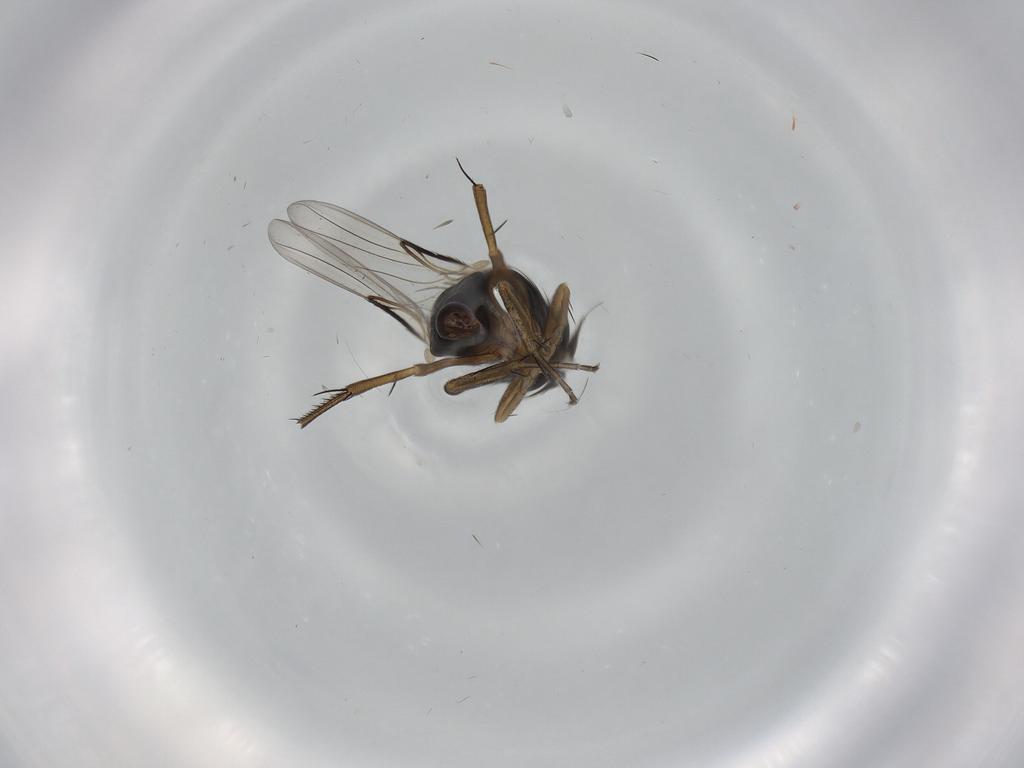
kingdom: Animalia
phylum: Arthropoda
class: Insecta
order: Diptera
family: Phoridae
